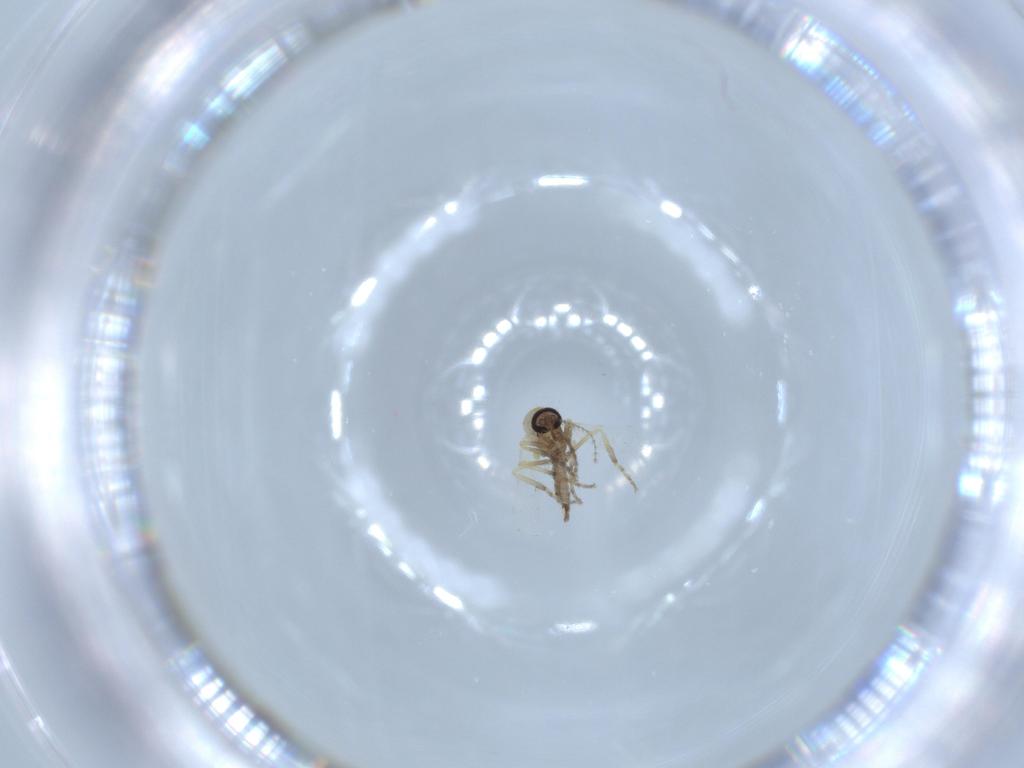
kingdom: Animalia
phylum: Arthropoda
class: Insecta
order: Diptera
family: Ceratopogonidae
